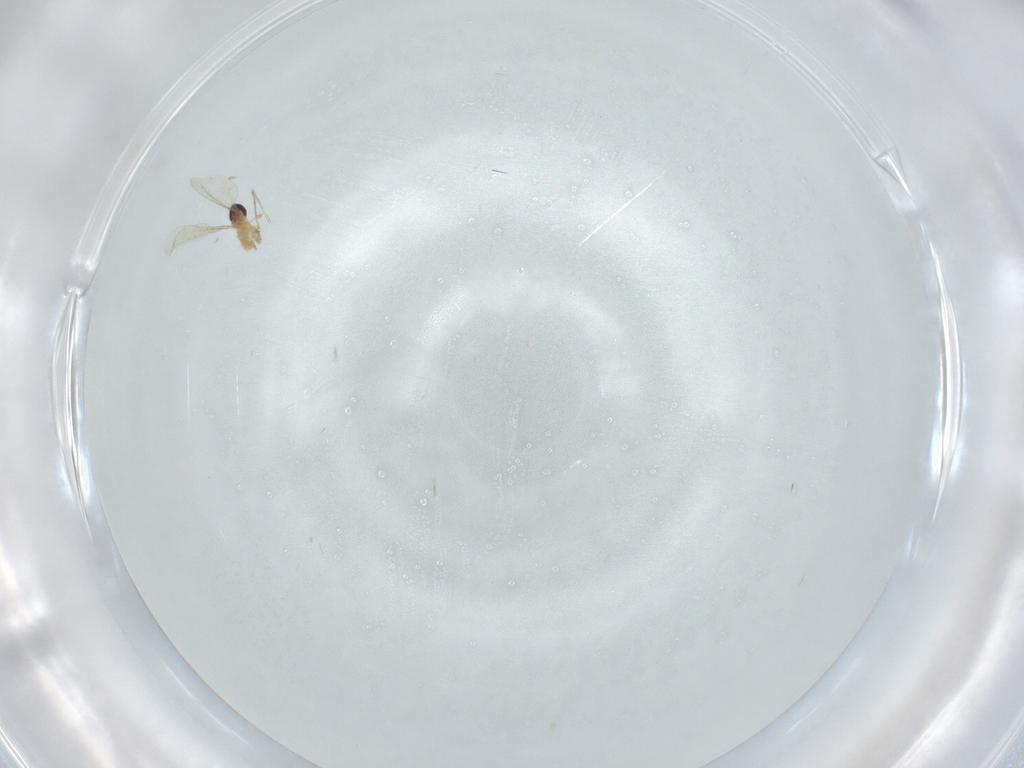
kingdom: Animalia
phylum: Arthropoda
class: Insecta
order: Diptera
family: Cecidomyiidae
